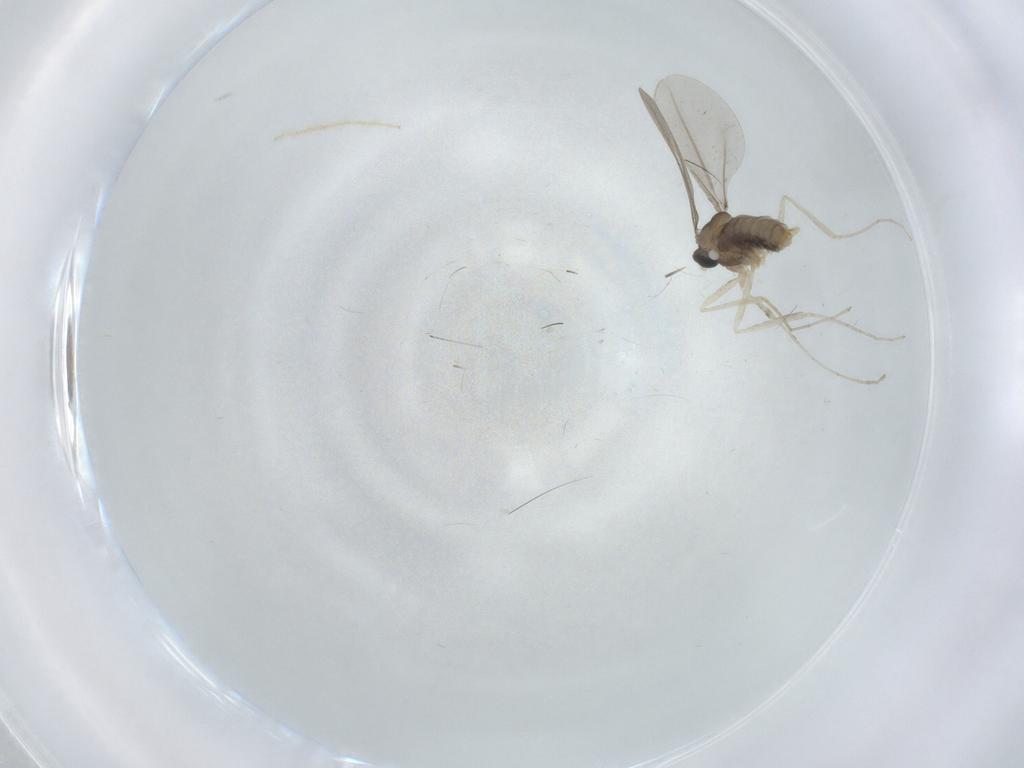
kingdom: Animalia
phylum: Arthropoda
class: Insecta
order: Diptera
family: Cecidomyiidae
